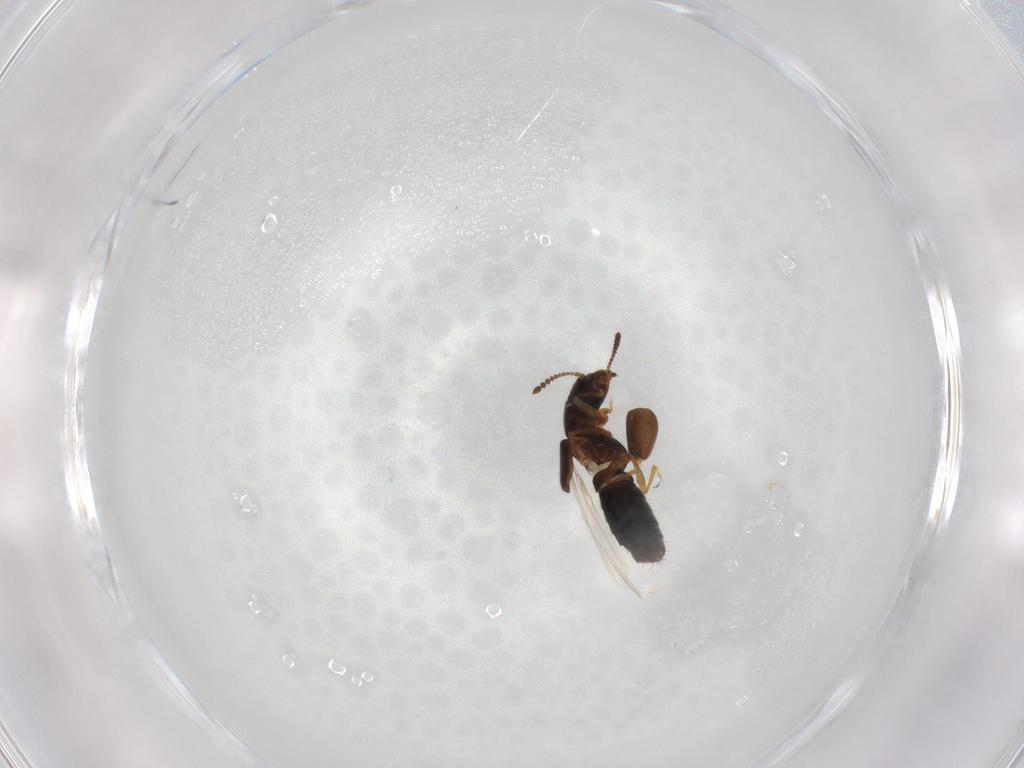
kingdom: Animalia
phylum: Arthropoda
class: Insecta
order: Coleoptera
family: Staphylinidae
